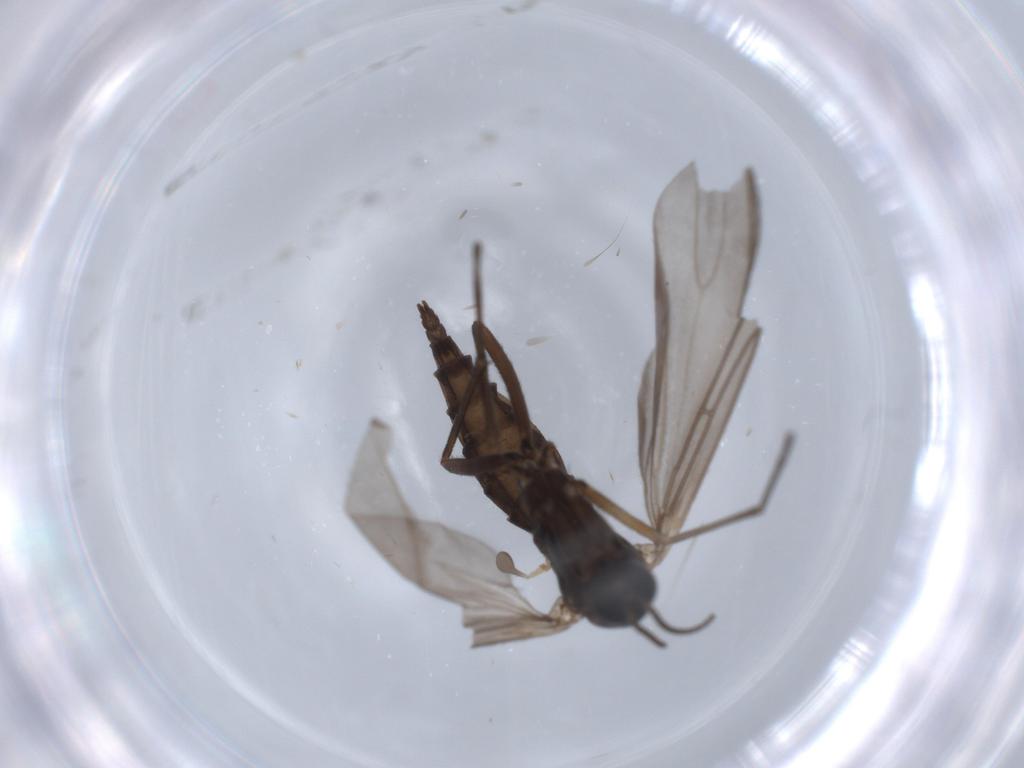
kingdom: Animalia
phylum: Arthropoda
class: Insecta
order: Diptera
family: Sciaridae
